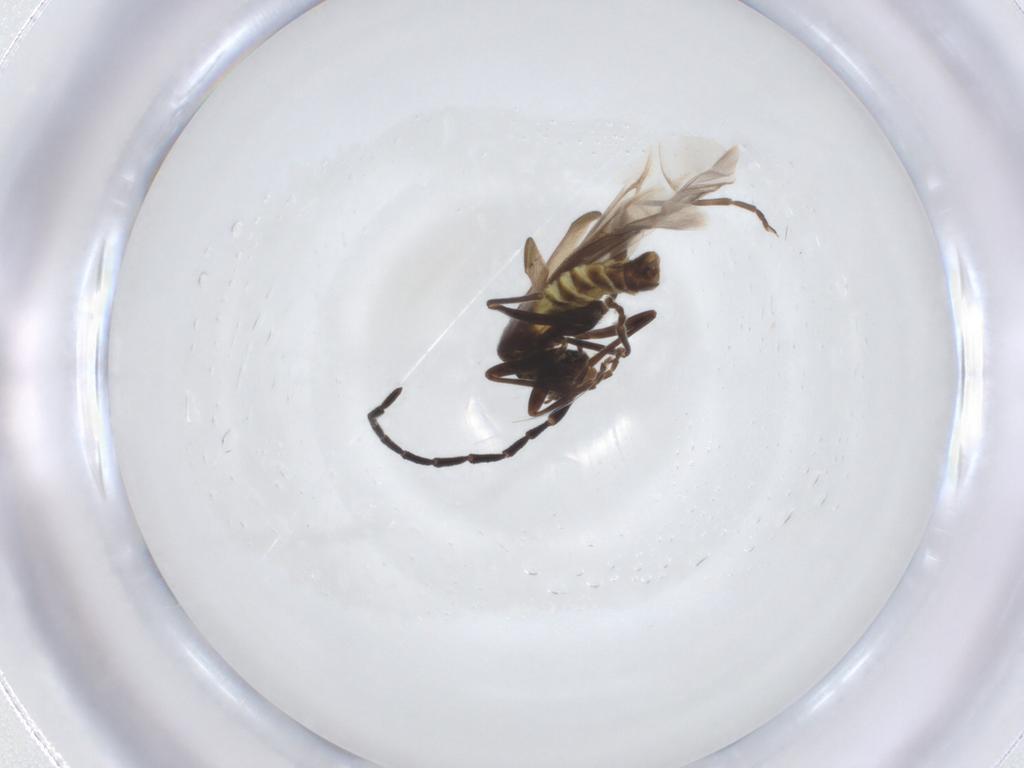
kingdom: Animalia
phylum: Arthropoda
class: Insecta
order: Coleoptera
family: Cantharidae
